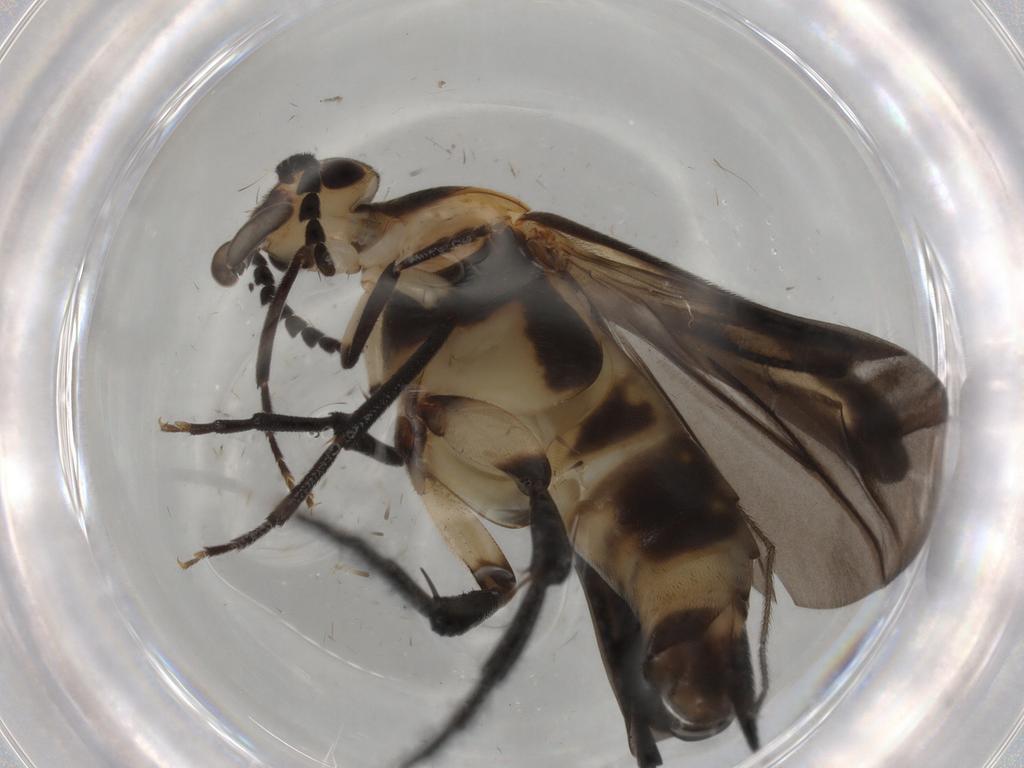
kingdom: Animalia
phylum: Arthropoda
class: Insecta
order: Coleoptera
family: Mordellidae
